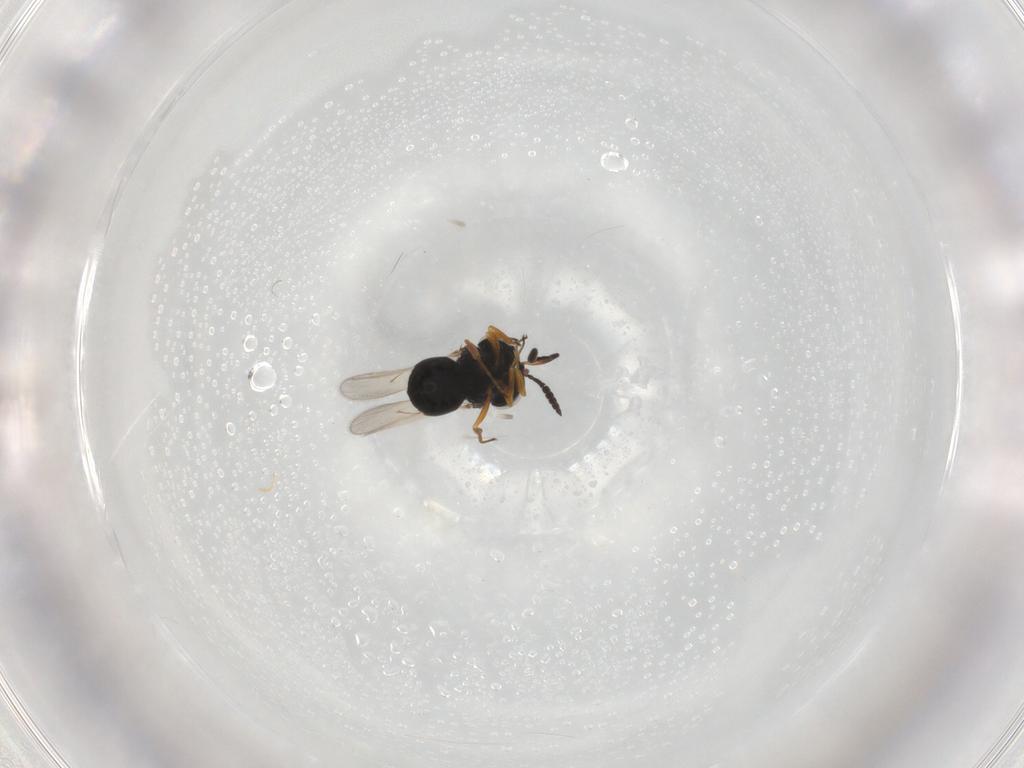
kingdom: Animalia
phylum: Arthropoda
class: Insecta
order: Hymenoptera
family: Scelionidae
